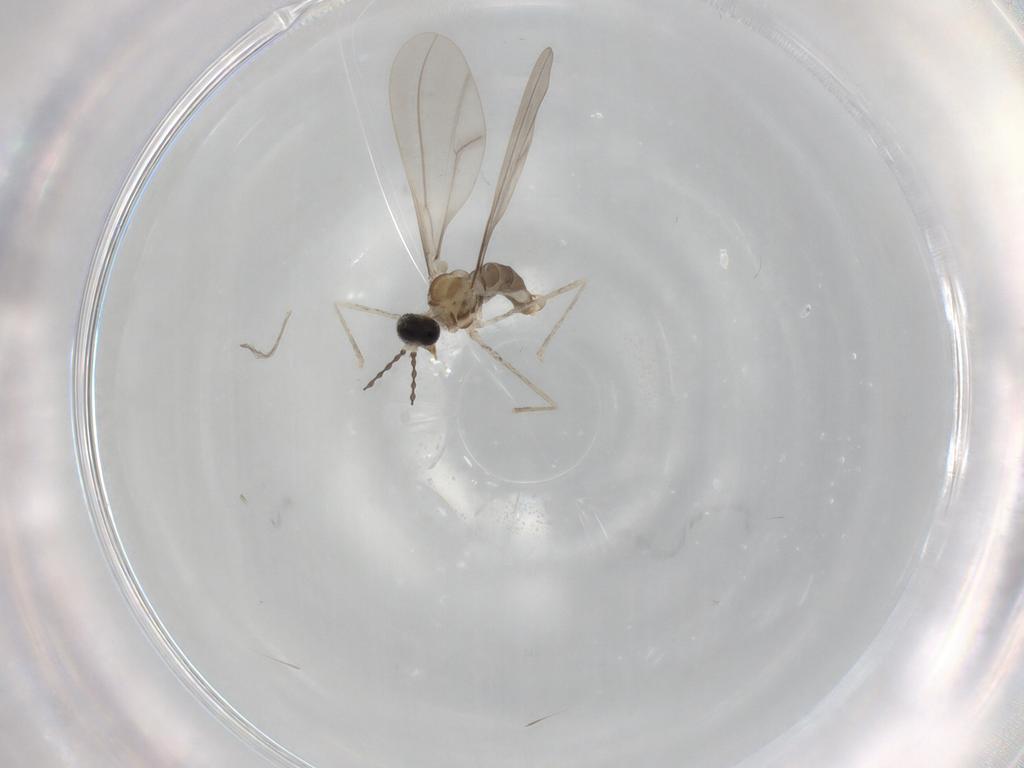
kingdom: Animalia
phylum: Arthropoda
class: Insecta
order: Diptera
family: Cecidomyiidae
